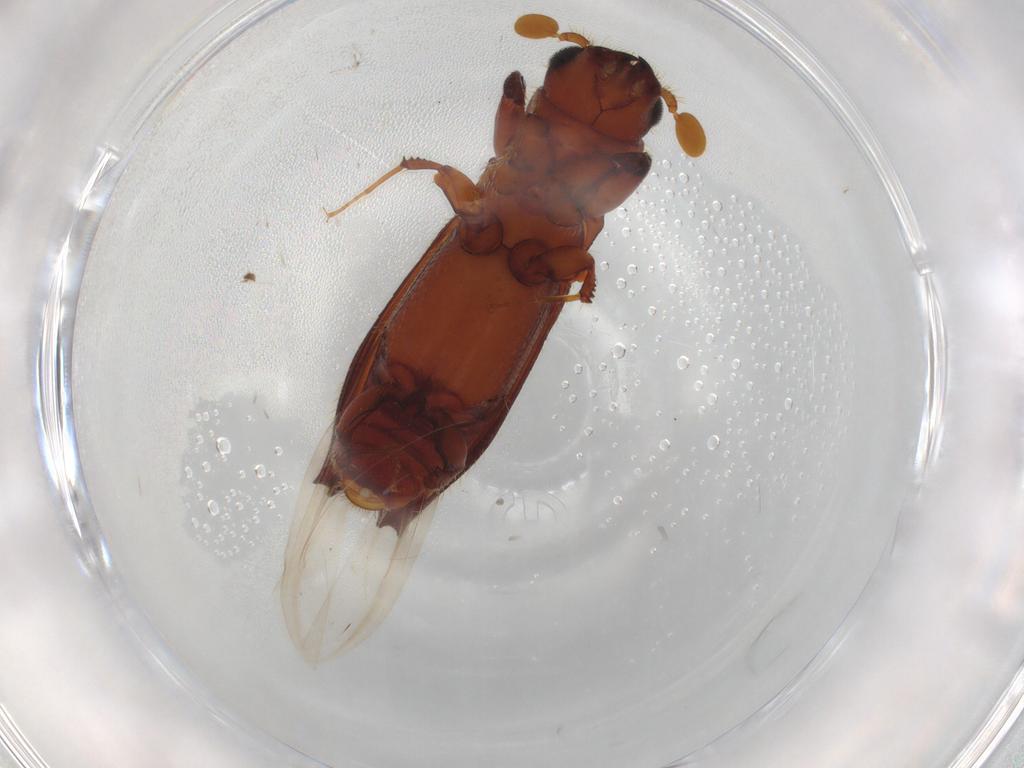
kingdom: Animalia
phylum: Arthropoda
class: Insecta
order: Coleoptera
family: Curculionidae
